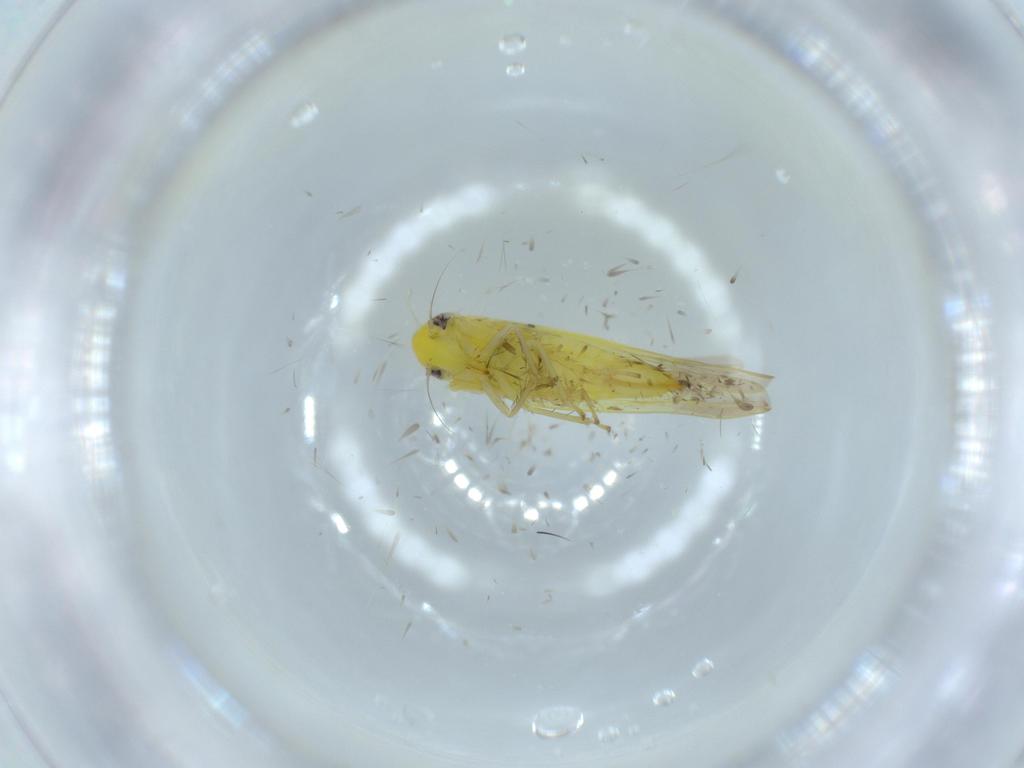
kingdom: Animalia
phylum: Arthropoda
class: Insecta
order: Hemiptera
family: Cicadellidae
